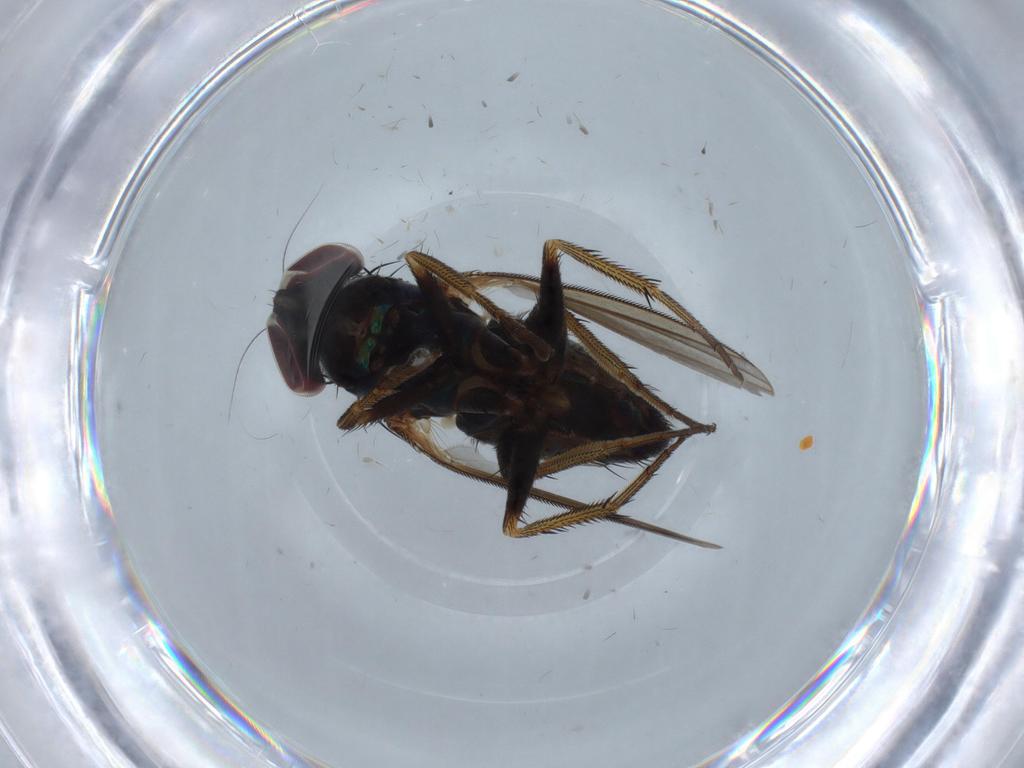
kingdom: Animalia
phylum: Arthropoda
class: Insecta
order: Diptera
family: Dolichopodidae
